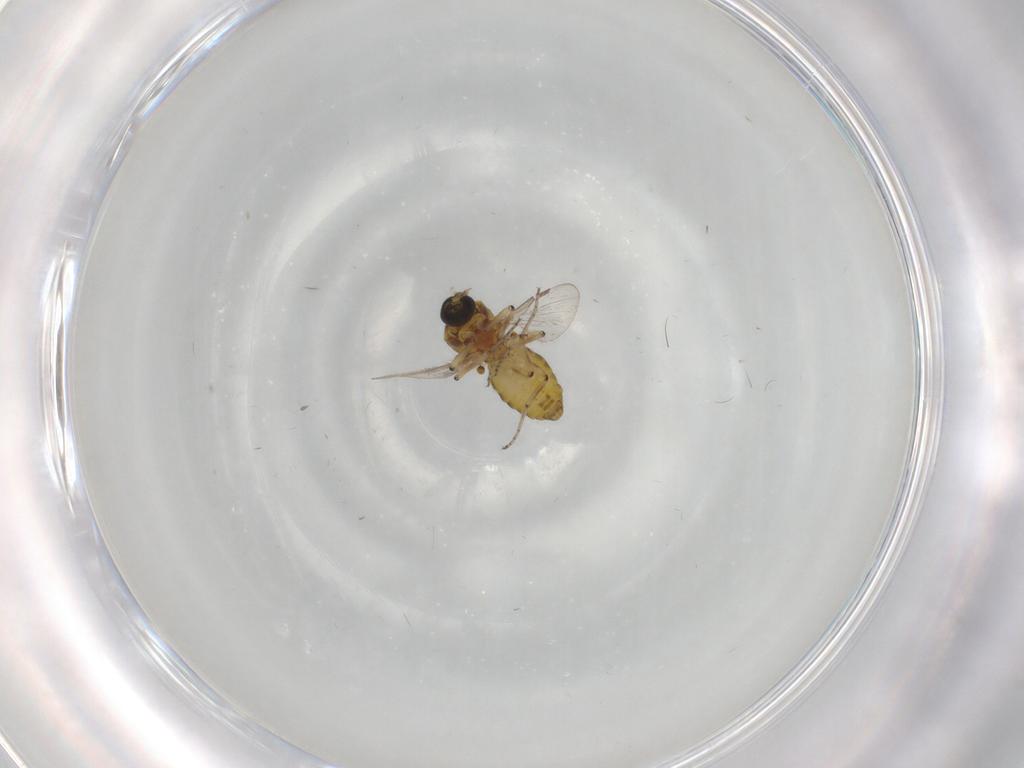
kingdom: Animalia
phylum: Arthropoda
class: Insecta
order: Diptera
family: Ceratopogonidae
